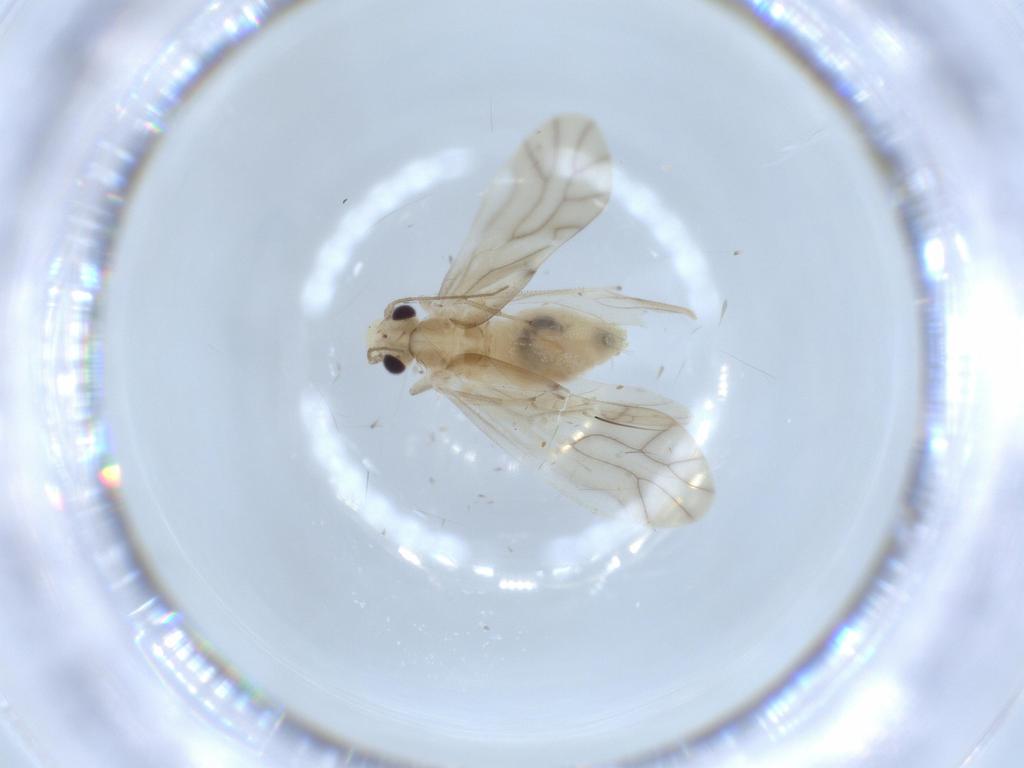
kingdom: Animalia
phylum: Arthropoda
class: Insecta
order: Psocodea
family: Caeciliusidae
